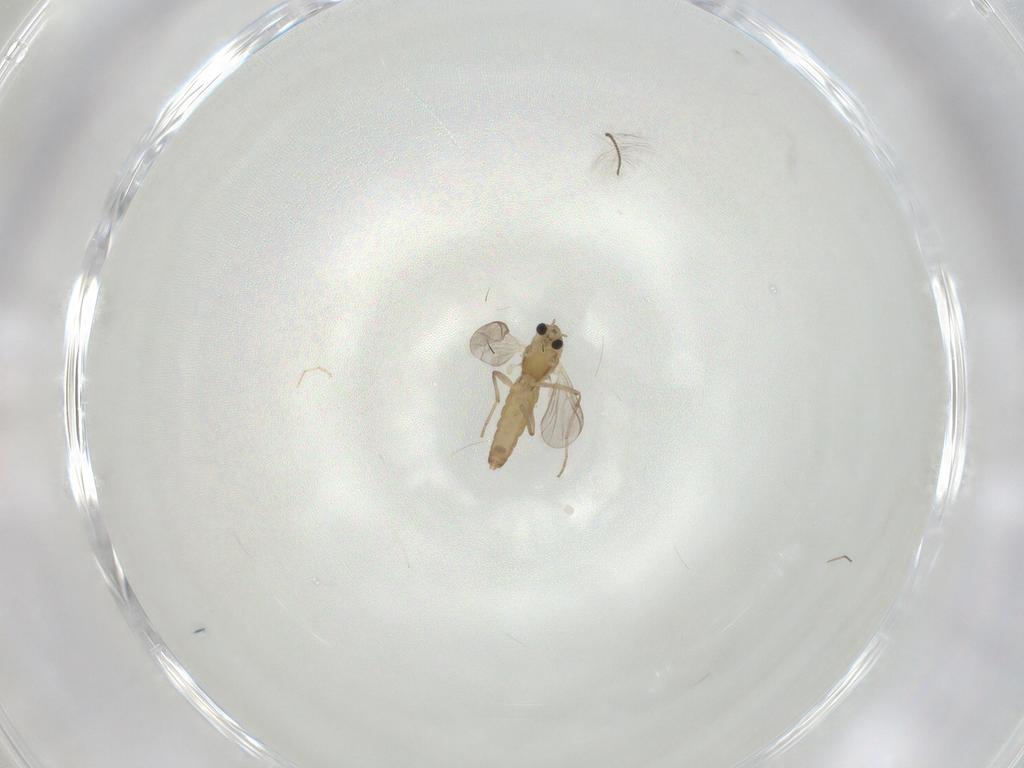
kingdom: Animalia
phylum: Arthropoda
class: Insecta
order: Diptera
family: Chironomidae
